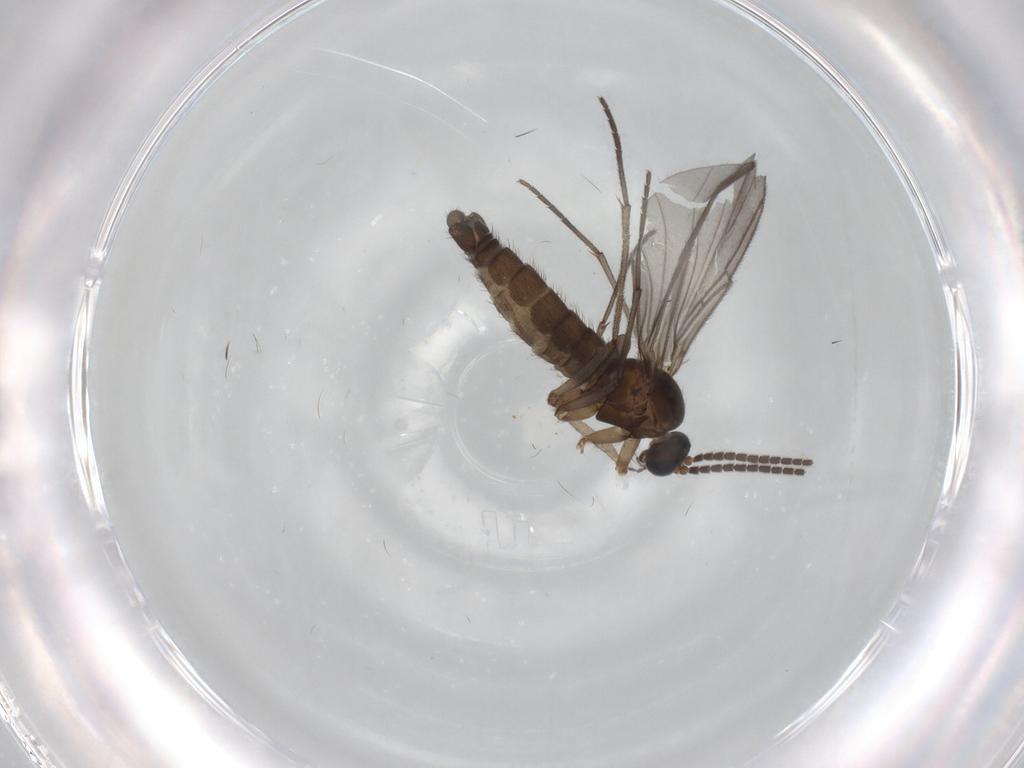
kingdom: Animalia
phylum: Arthropoda
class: Insecta
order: Diptera
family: Sciaridae
